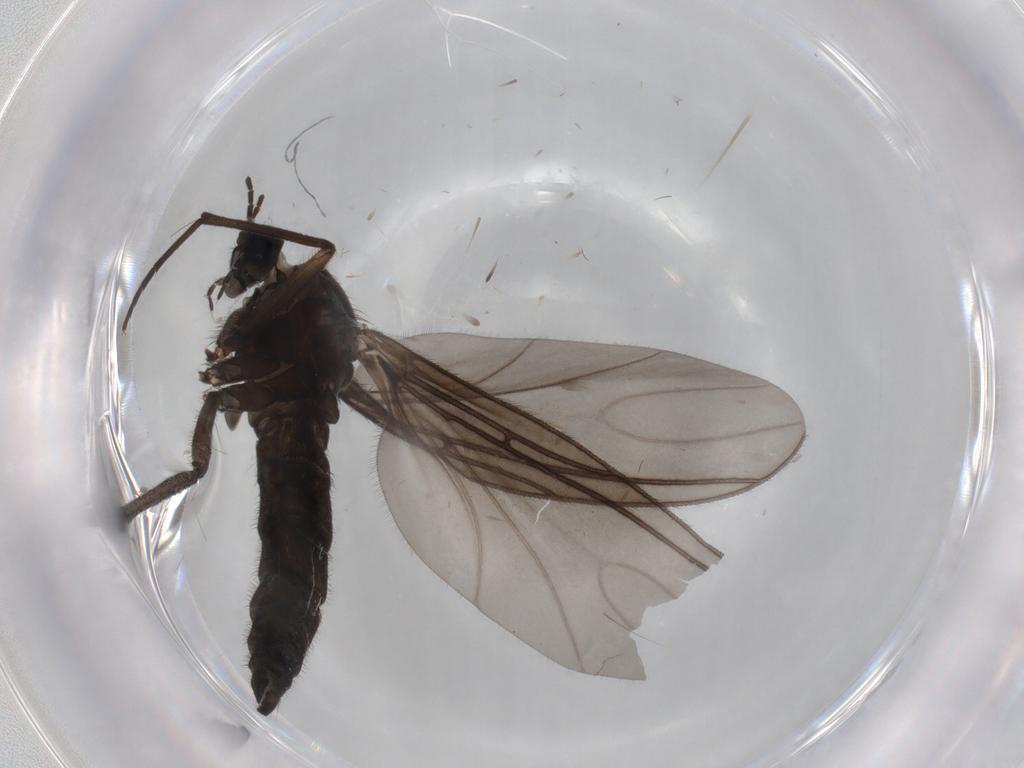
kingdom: Animalia
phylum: Arthropoda
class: Insecta
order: Diptera
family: Sciaridae
